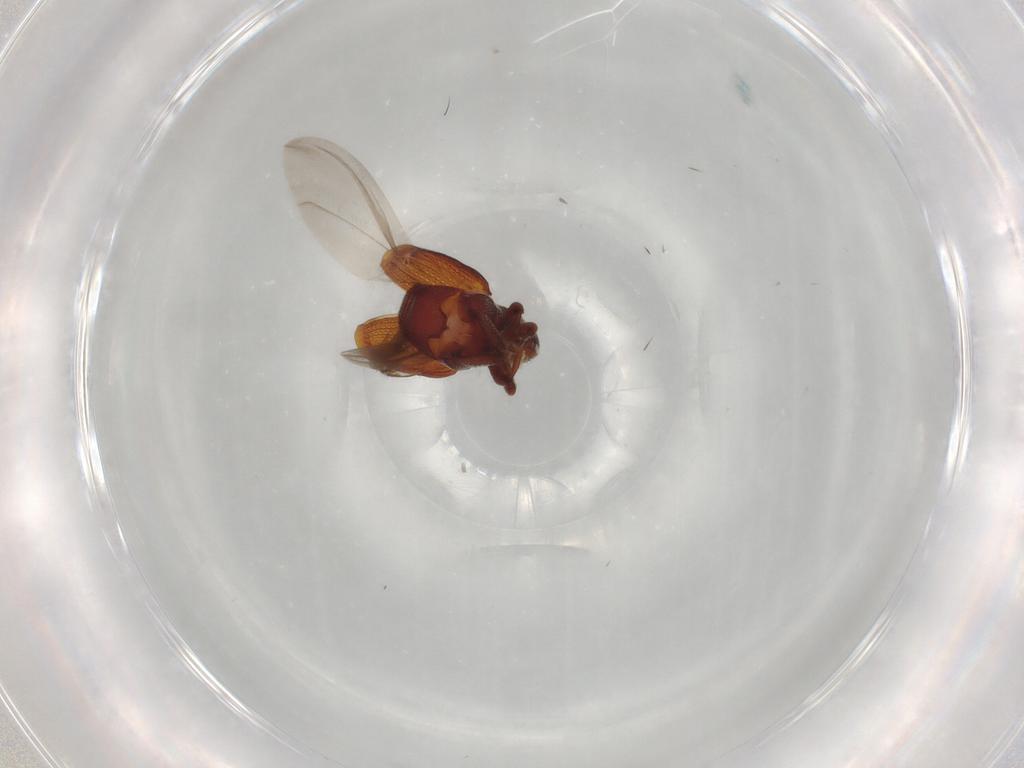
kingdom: Animalia
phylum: Arthropoda
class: Insecta
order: Coleoptera
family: Curculionidae
